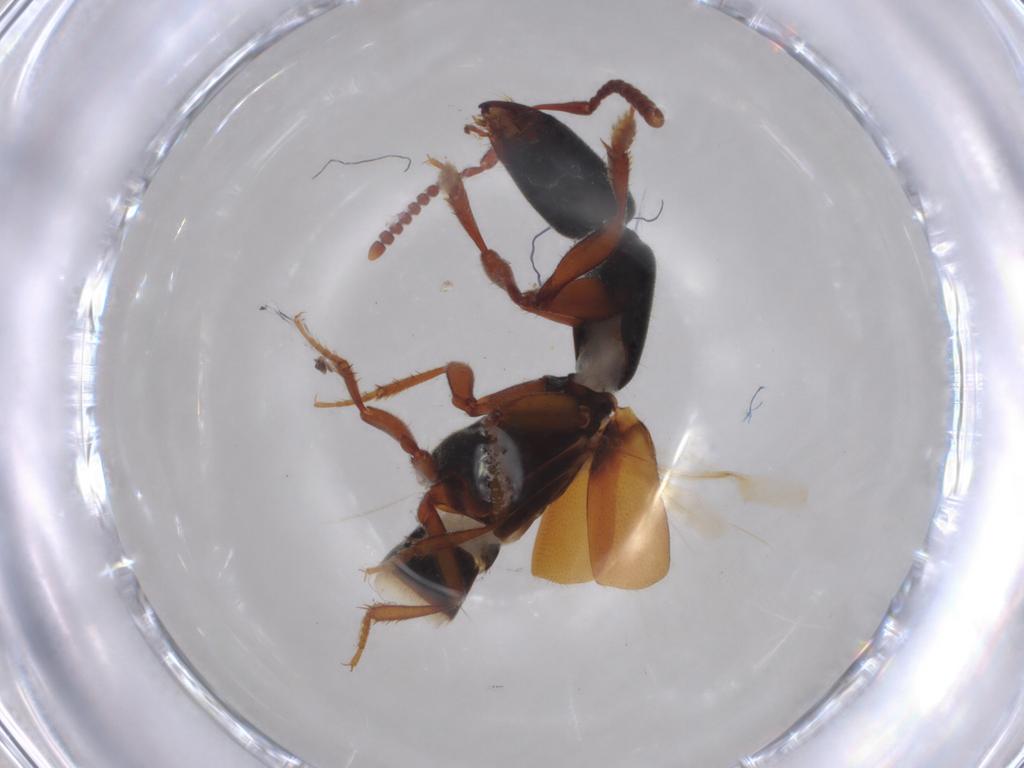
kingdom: Animalia
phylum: Arthropoda
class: Insecta
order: Coleoptera
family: Staphylinidae
